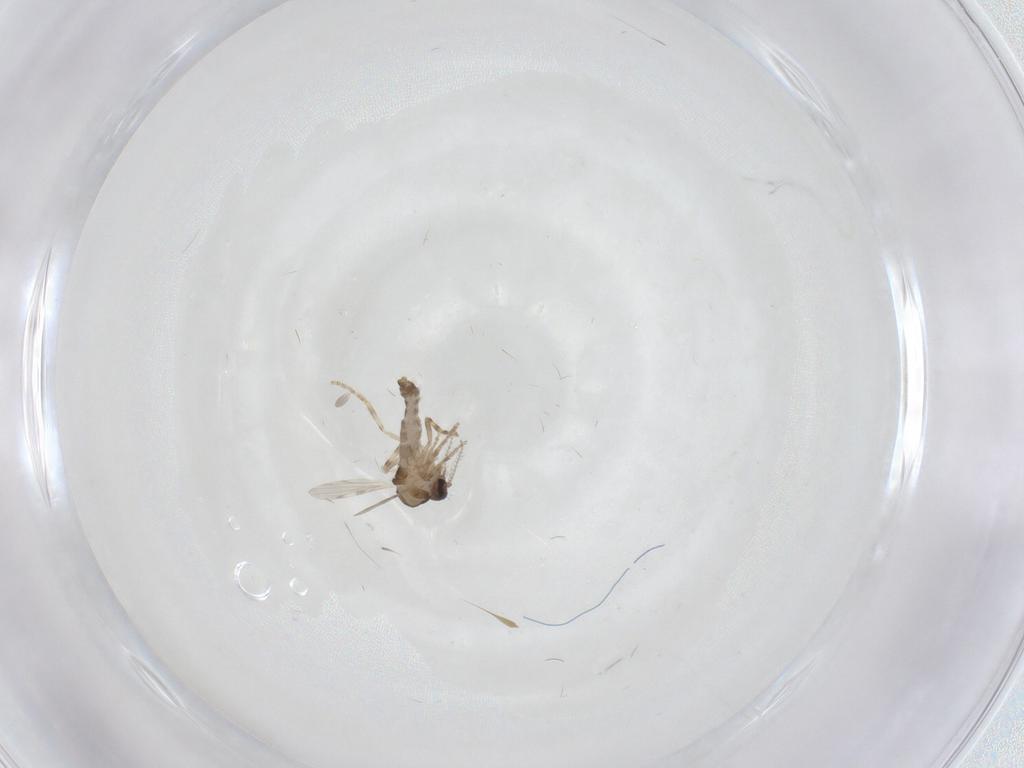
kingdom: Animalia
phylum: Arthropoda
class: Insecta
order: Diptera
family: Ceratopogonidae
